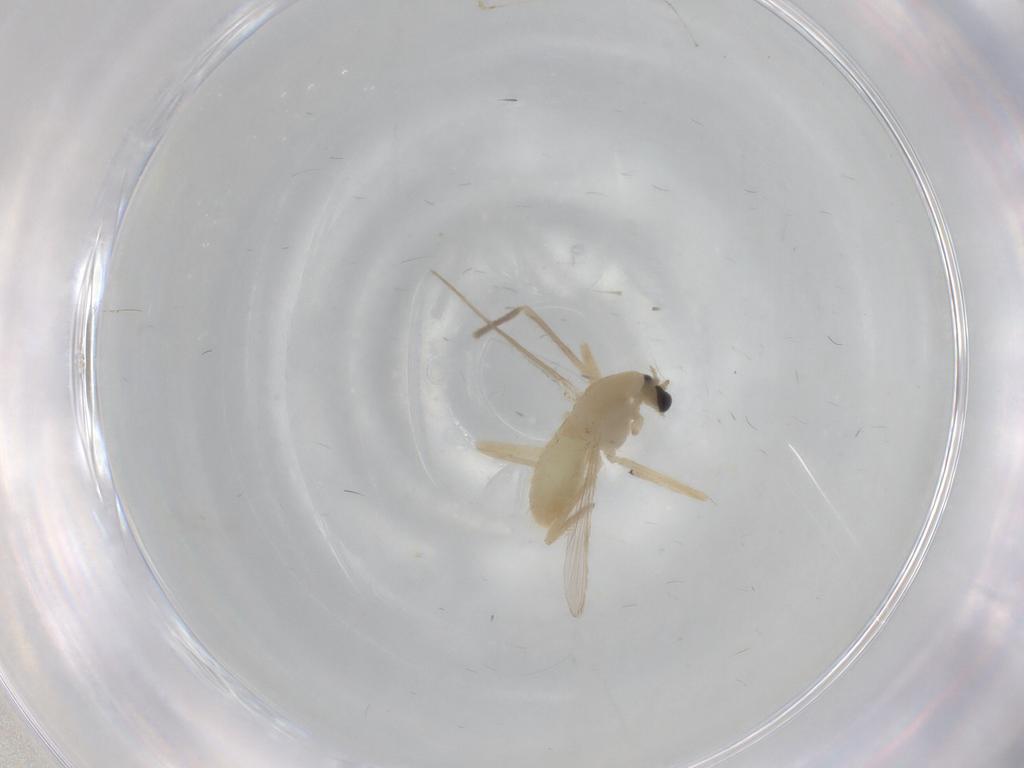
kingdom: Animalia
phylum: Arthropoda
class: Insecta
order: Diptera
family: Chironomidae
